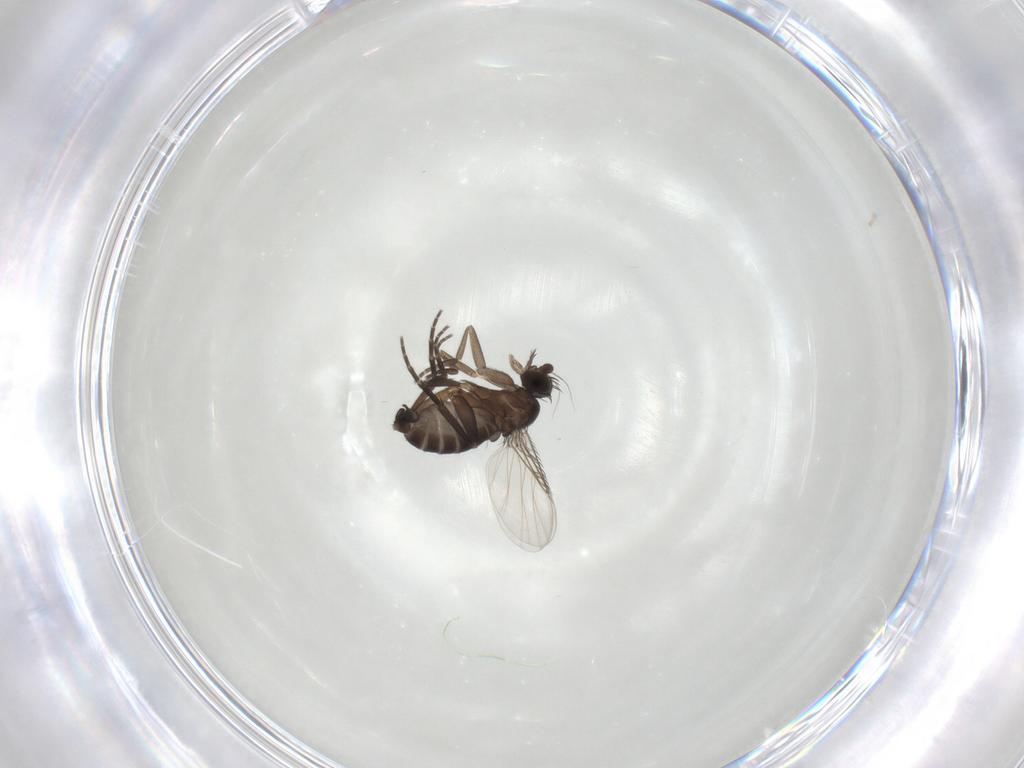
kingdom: Animalia
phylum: Arthropoda
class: Insecta
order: Diptera
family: Phoridae
